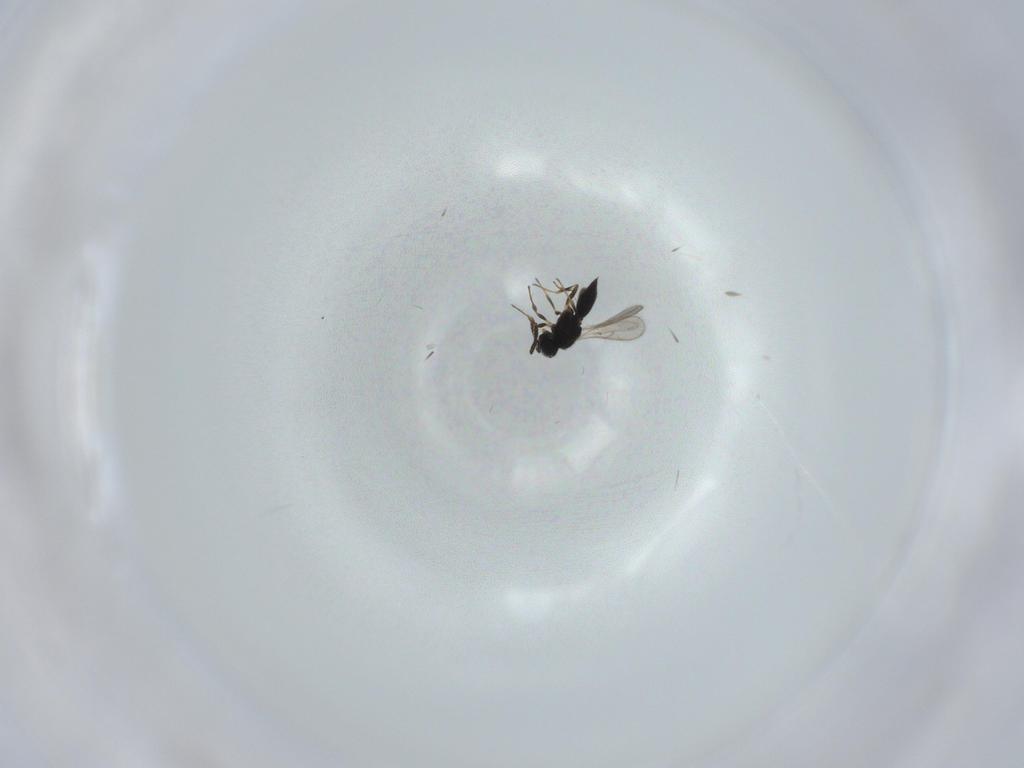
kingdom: Animalia
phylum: Arthropoda
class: Insecta
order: Hymenoptera
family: Scelionidae
